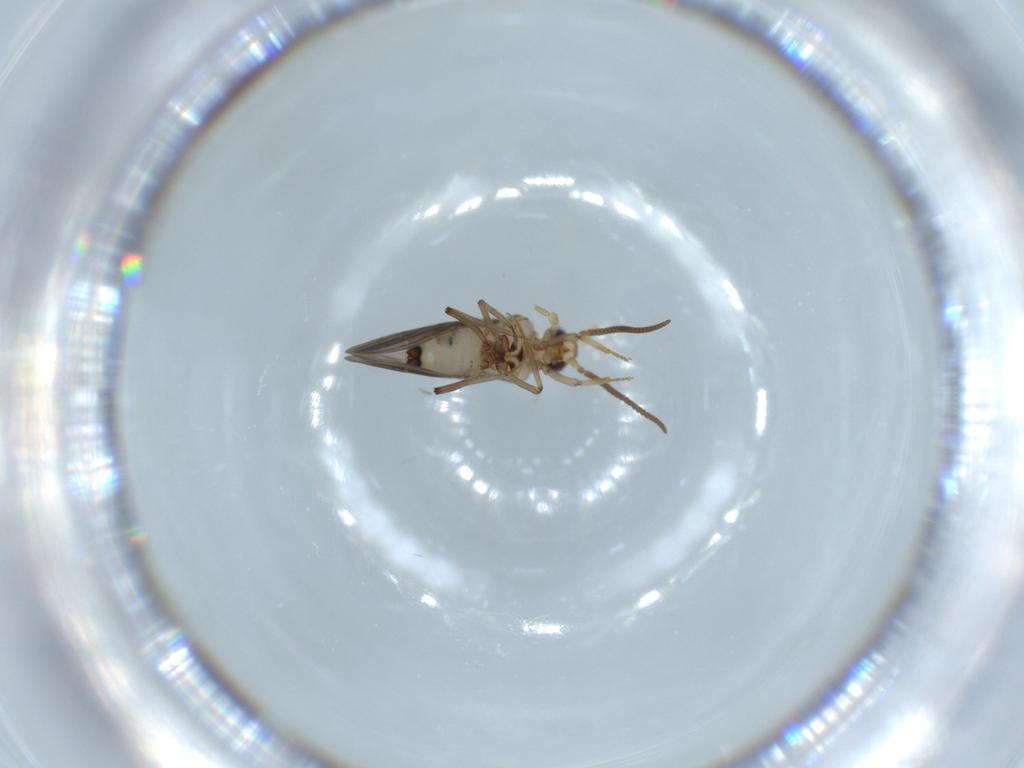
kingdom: Animalia
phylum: Arthropoda
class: Insecta
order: Neuroptera
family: Coniopterygidae
